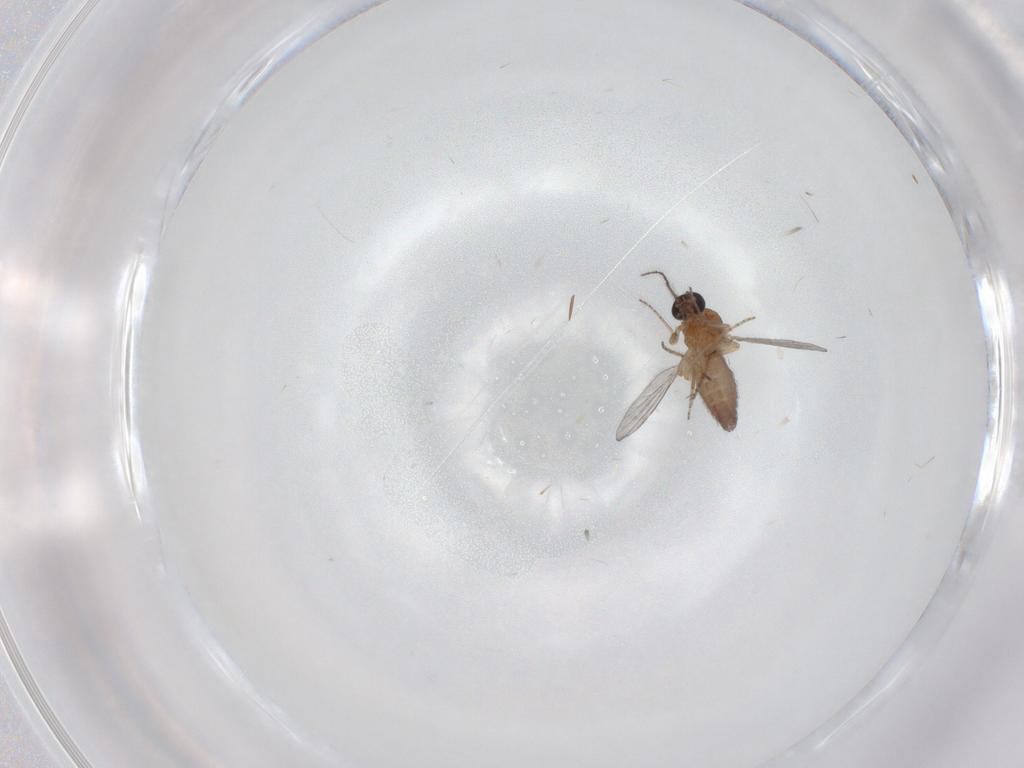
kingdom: Animalia
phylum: Arthropoda
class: Insecta
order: Diptera
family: Ceratopogonidae
